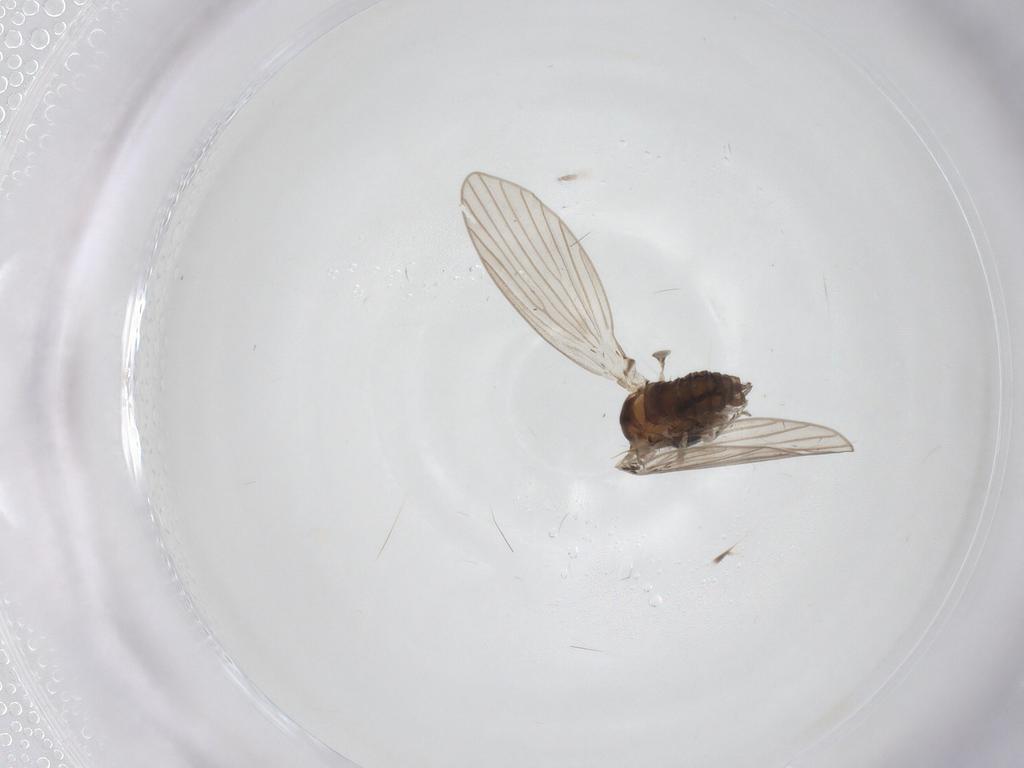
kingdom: Animalia
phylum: Arthropoda
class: Insecta
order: Diptera
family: Psychodidae
